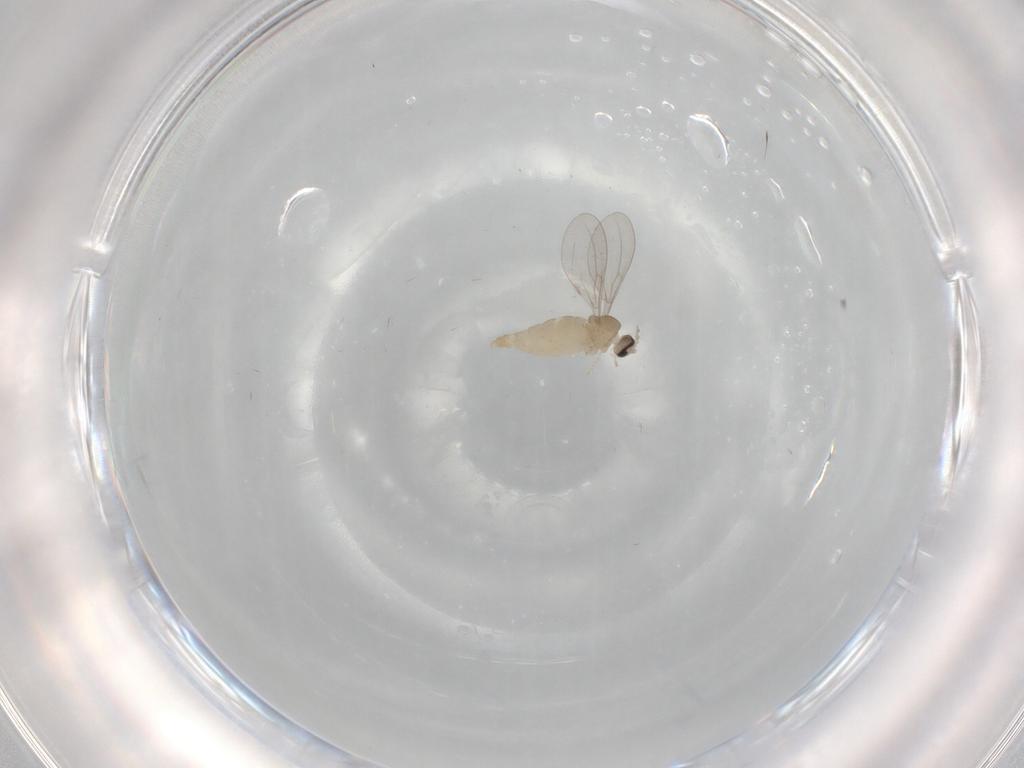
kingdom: Animalia
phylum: Arthropoda
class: Insecta
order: Diptera
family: Cecidomyiidae
